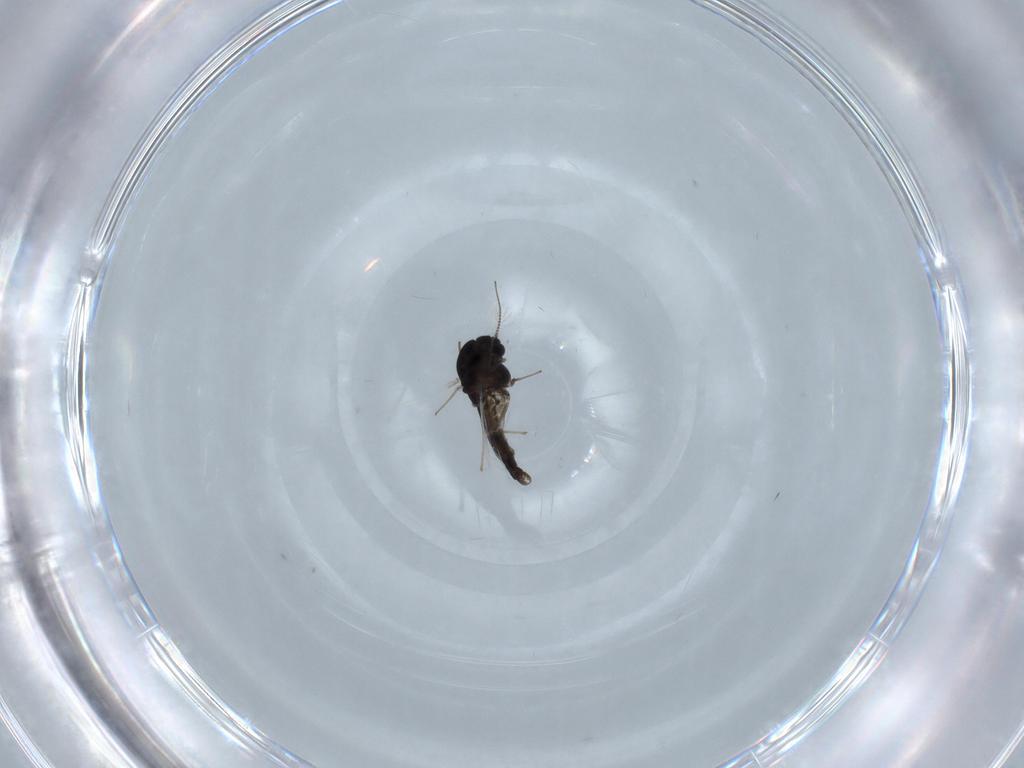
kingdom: Animalia
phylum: Arthropoda
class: Insecta
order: Diptera
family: Chironomidae
